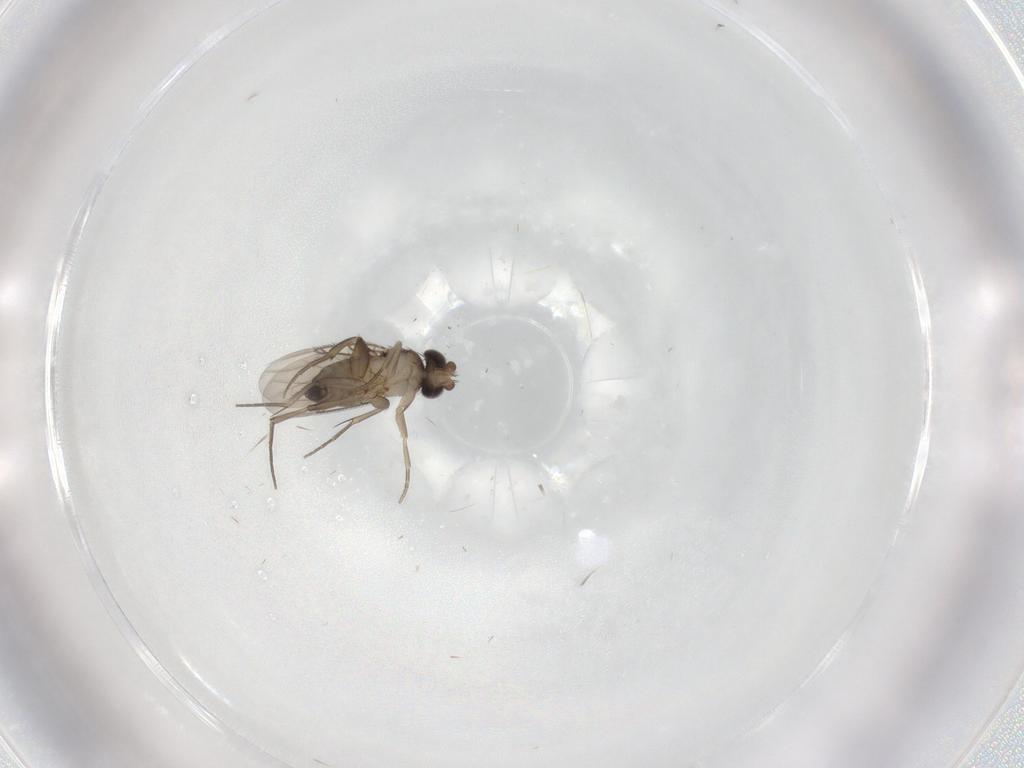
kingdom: Animalia
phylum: Arthropoda
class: Insecta
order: Diptera
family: Phoridae
